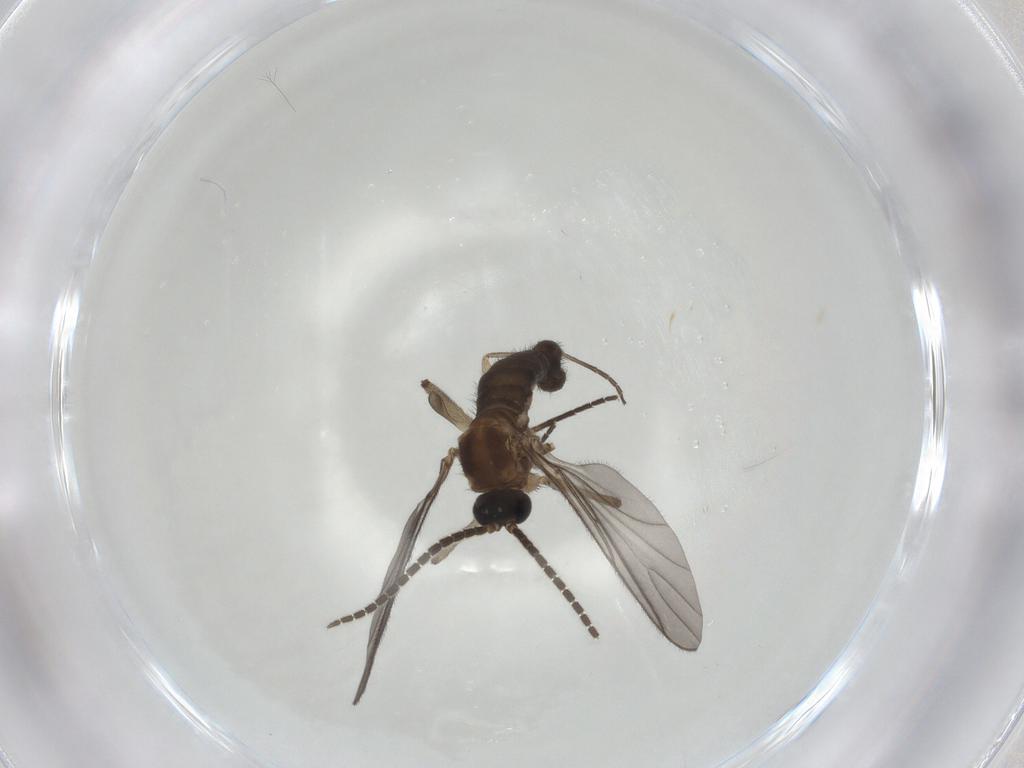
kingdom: Animalia
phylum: Arthropoda
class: Insecta
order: Diptera
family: Sciaridae
